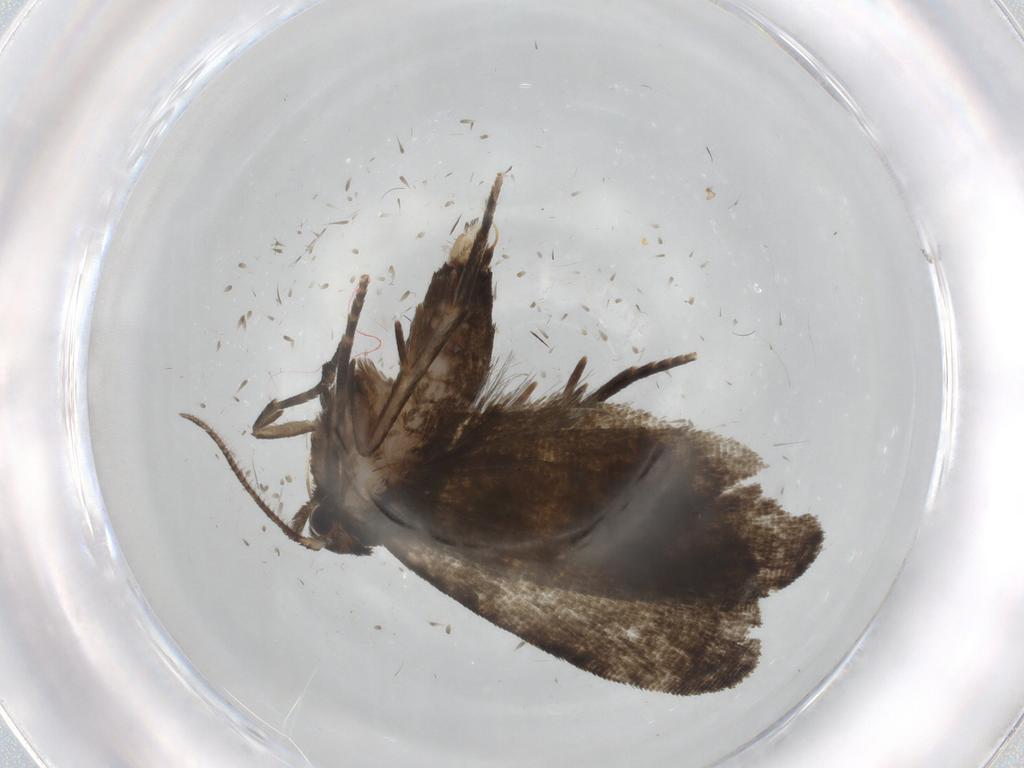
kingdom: Animalia
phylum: Arthropoda
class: Insecta
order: Lepidoptera
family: Tortricidae
